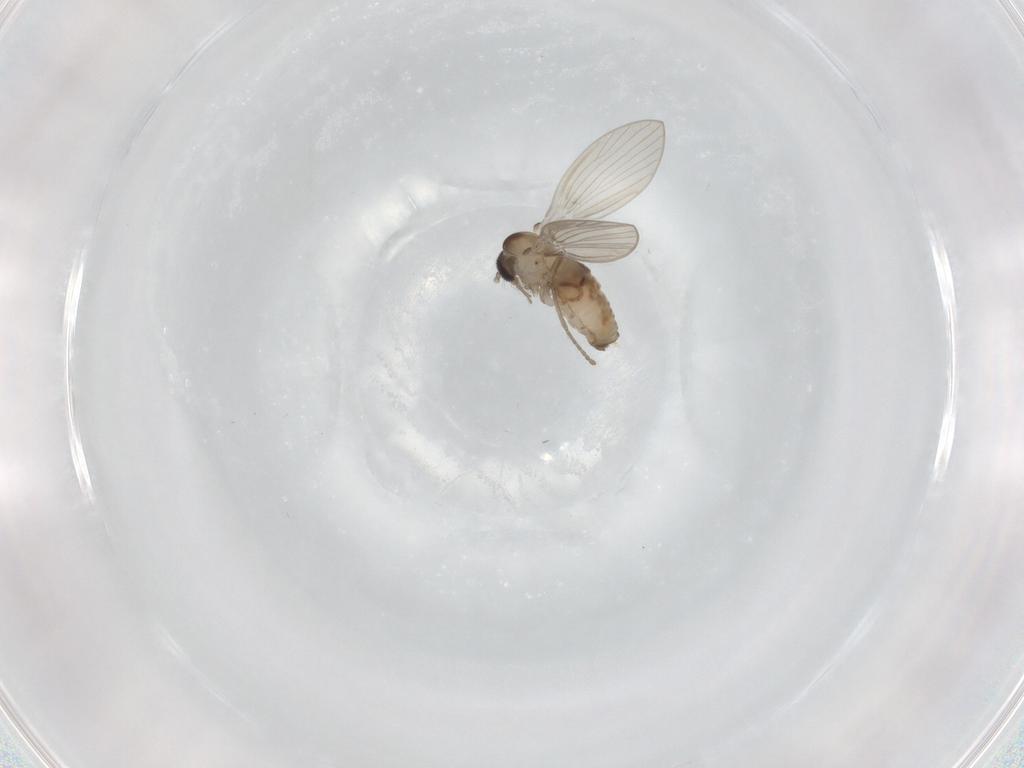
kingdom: Animalia
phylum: Arthropoda
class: Insecta
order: Diptera
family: Psychodidae
